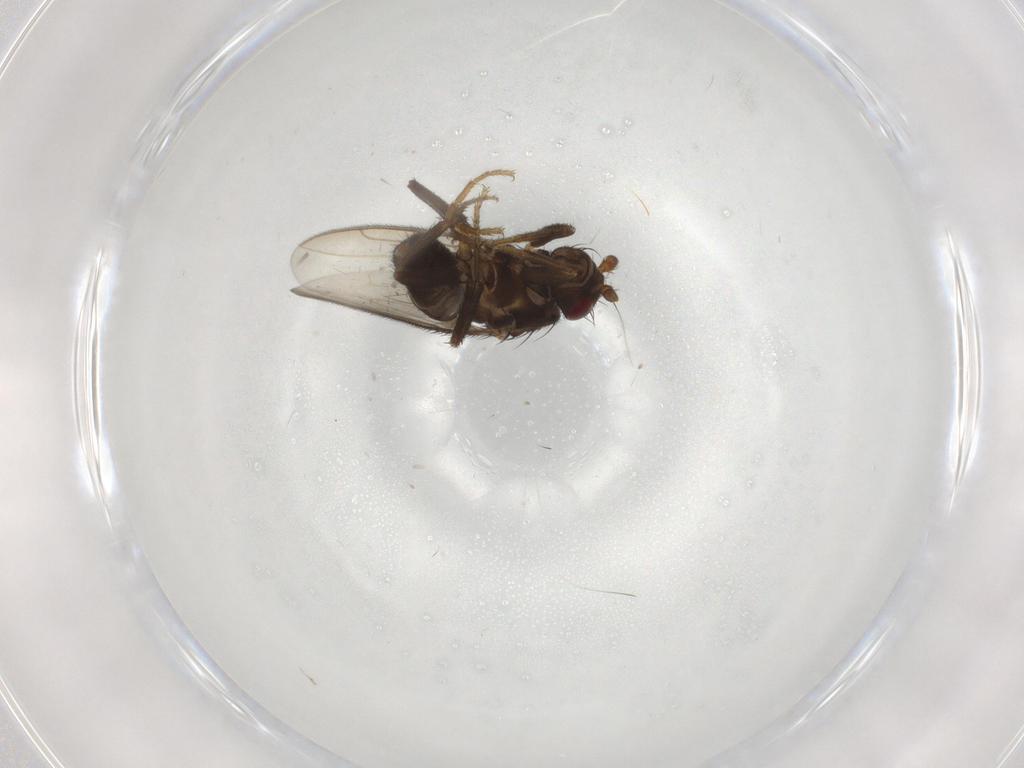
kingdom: Animalia
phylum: Arthropoda
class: Insecta
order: Diptera
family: Sphaeroceridae
